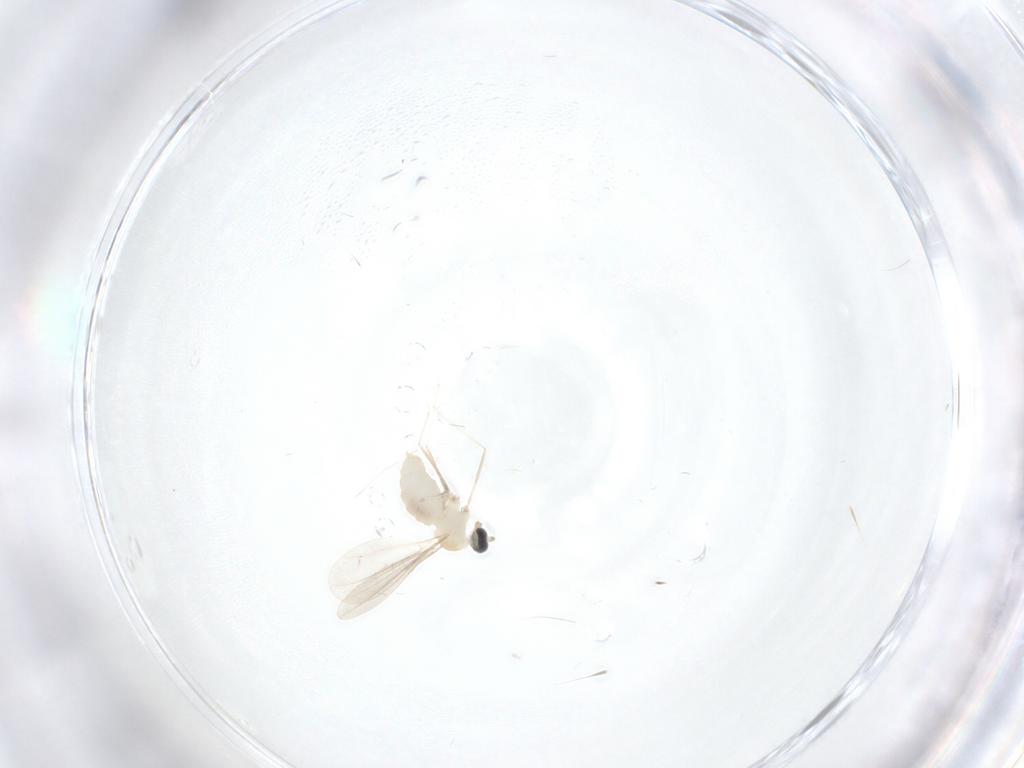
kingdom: Animalia
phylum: Arthropoda
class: Insecta
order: Diptera
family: Cecidomyiidae
